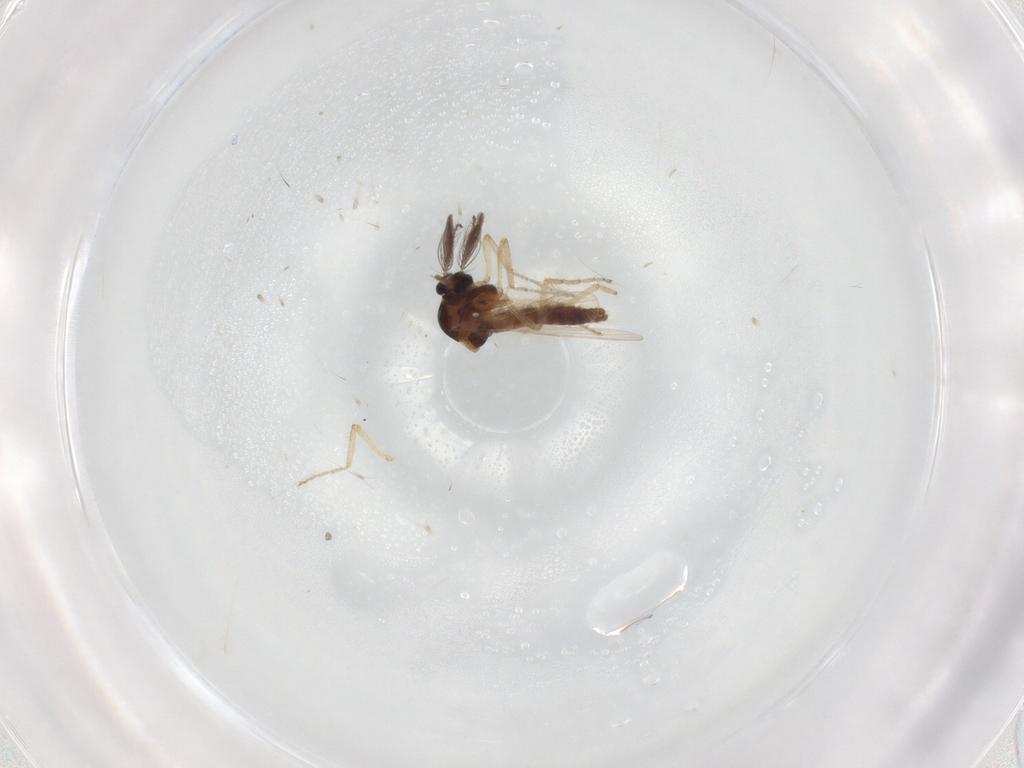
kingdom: Animalia
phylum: Arthropoda
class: Insecta
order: Diptera
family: Ceratopogonidae
